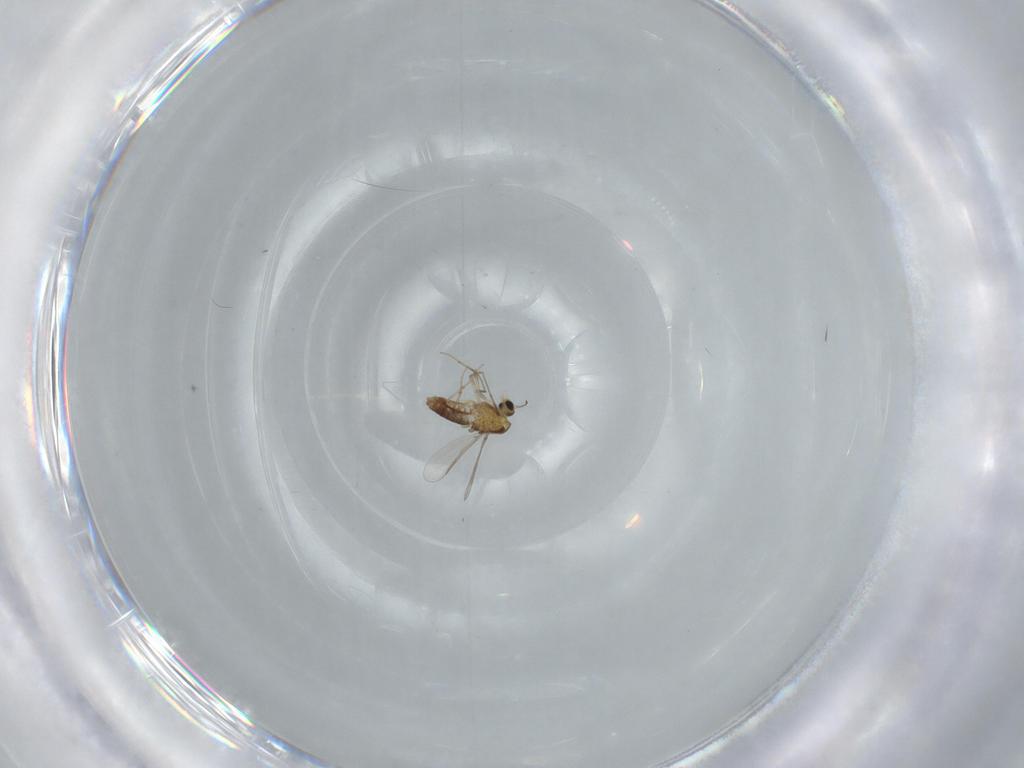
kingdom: Animalia
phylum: Arthropoda
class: Insecta
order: Diptera
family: Chironomidae
